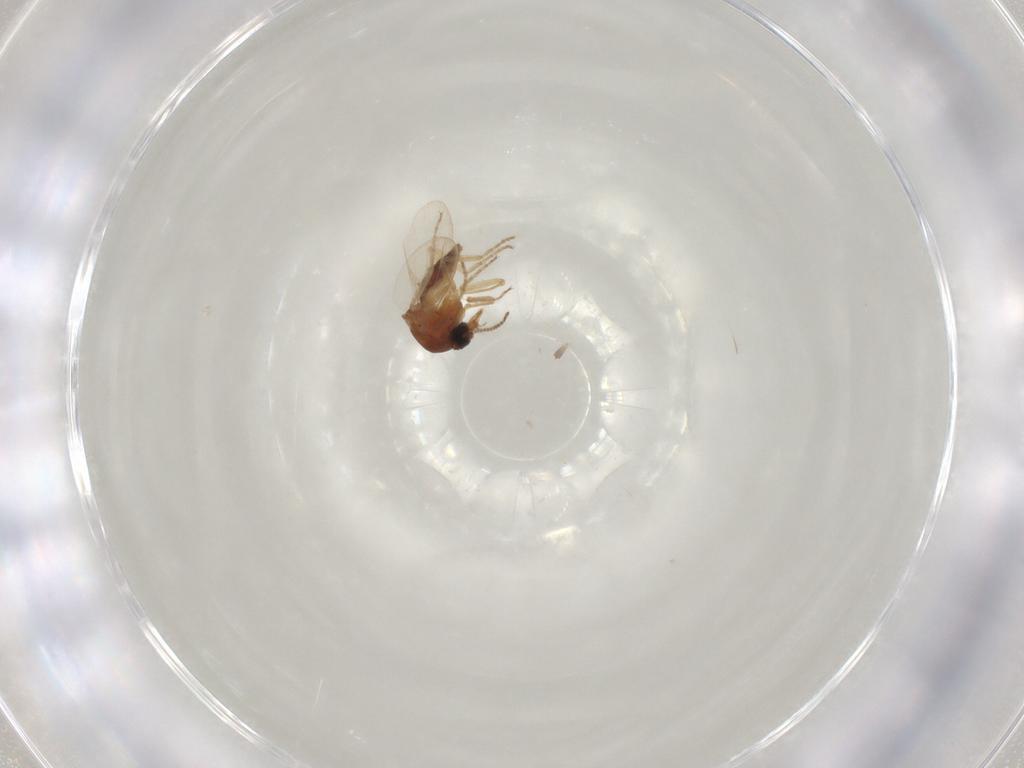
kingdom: Animalia
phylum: Arthropoda
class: Insecta
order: Diptera
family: Ceratopogonidae
